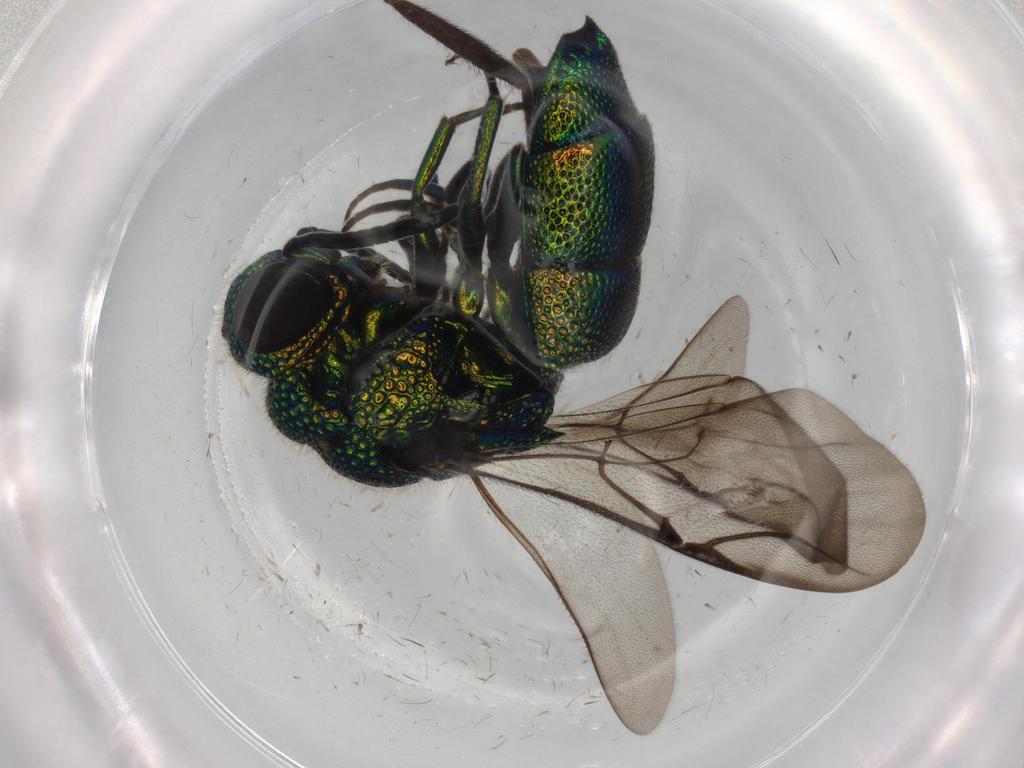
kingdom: Animalia
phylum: Arthropoda
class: Insecta
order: Hymenoptera
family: Chrysididae
